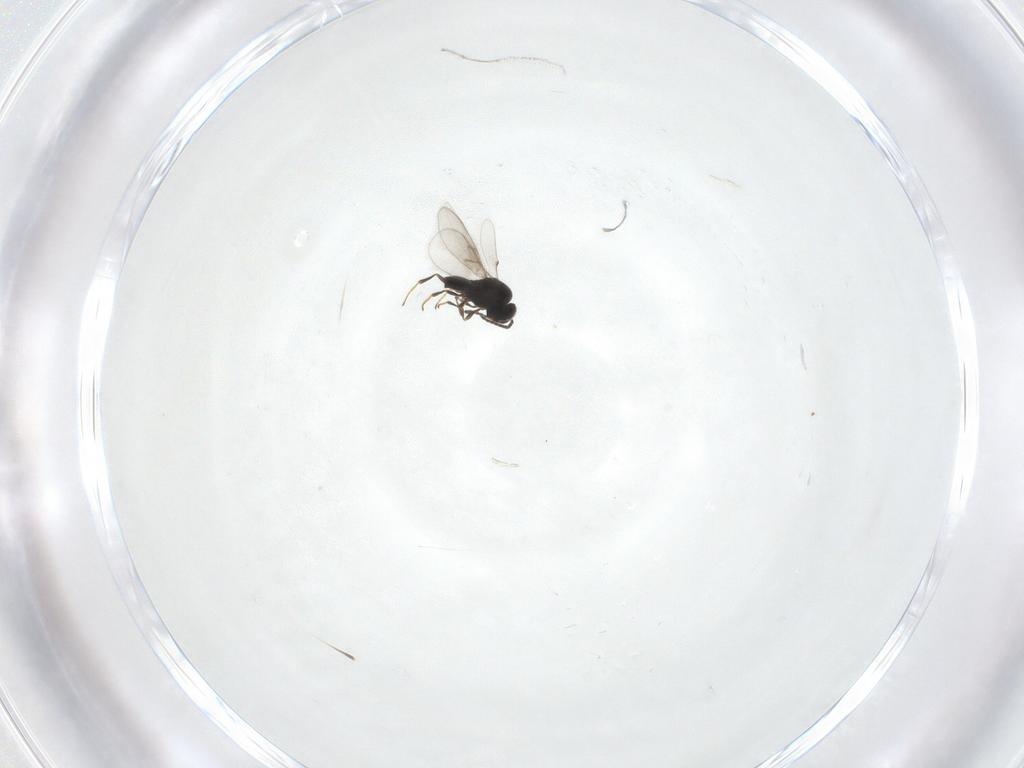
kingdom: Animalia
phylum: Arthropoda
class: Insecta
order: Hymenoptera
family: Scelionidae
